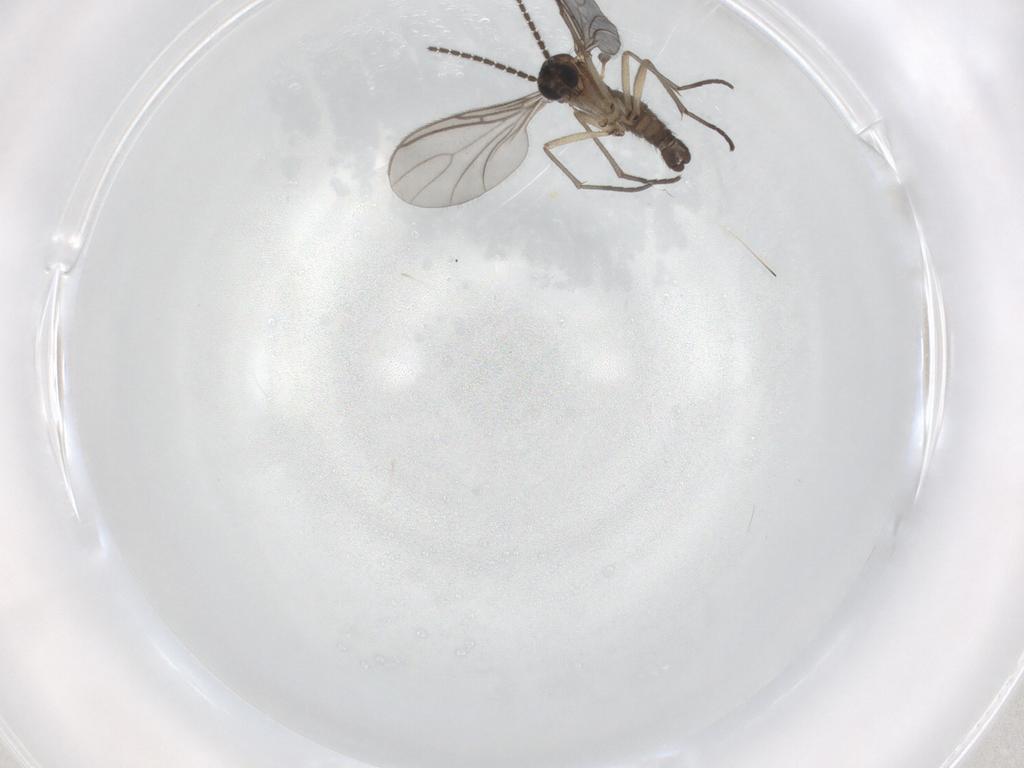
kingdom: Animalia
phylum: Arthropoda
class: Insecta
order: Diptera
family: Sciaridae
